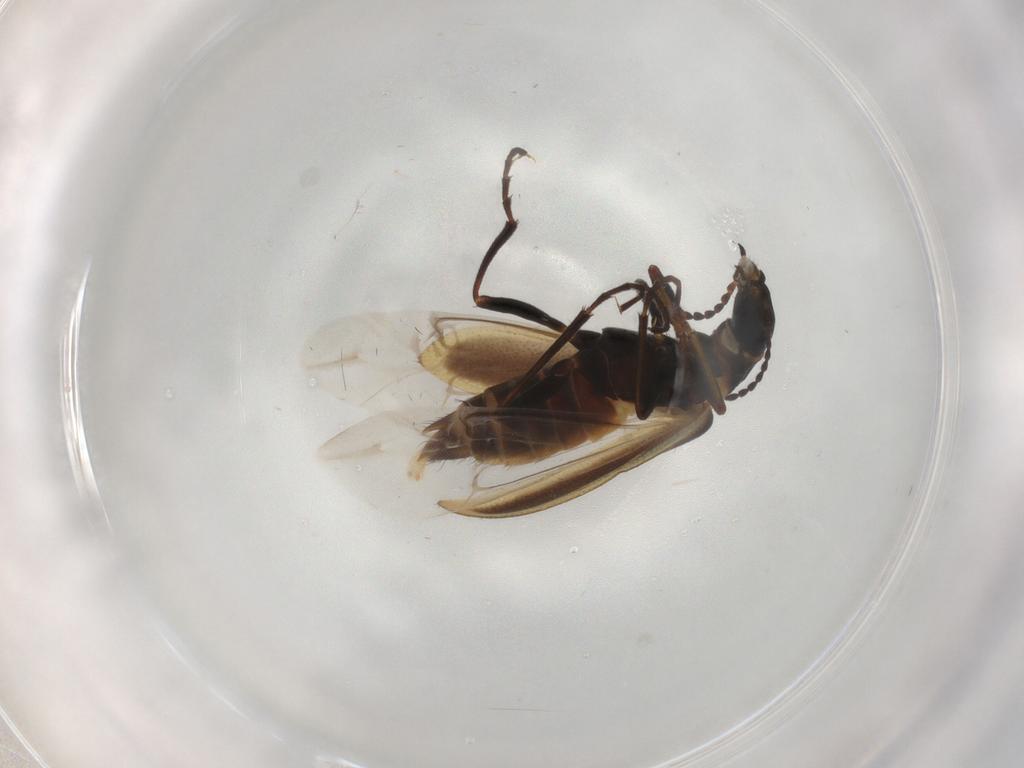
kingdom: Animalia
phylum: Arthropoda
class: Insecta
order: Coleoptera
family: Melyridae
